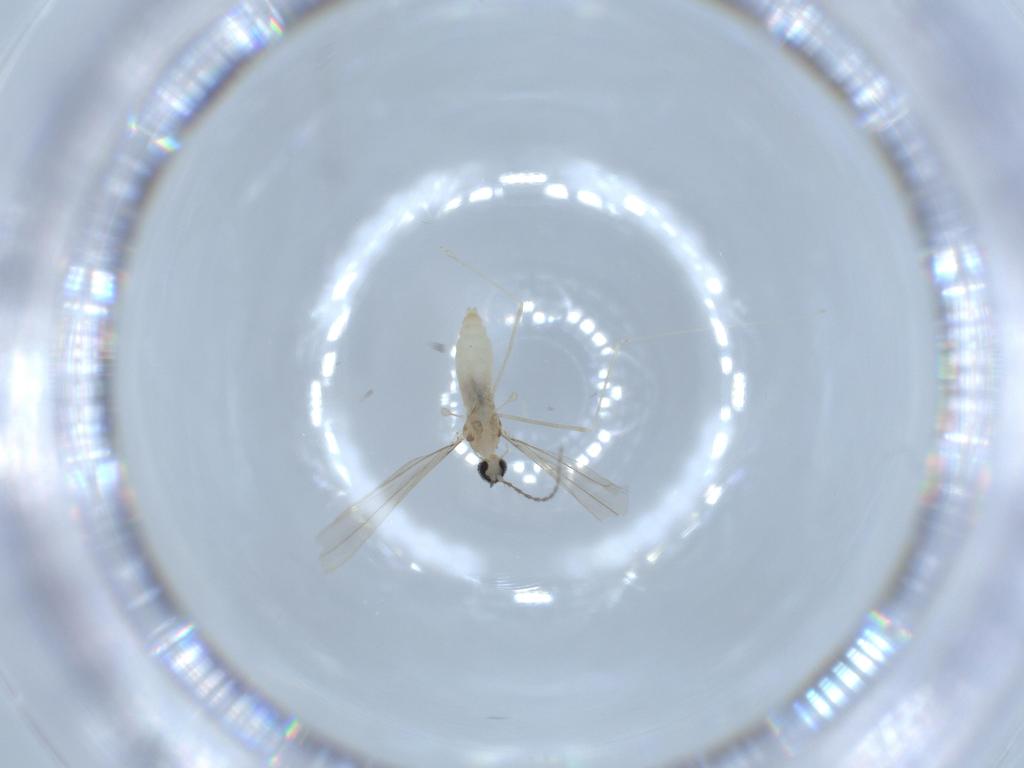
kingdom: Animalia
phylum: Arthropoda
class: Insecta
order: Diptera
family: Cecidomyiidae
